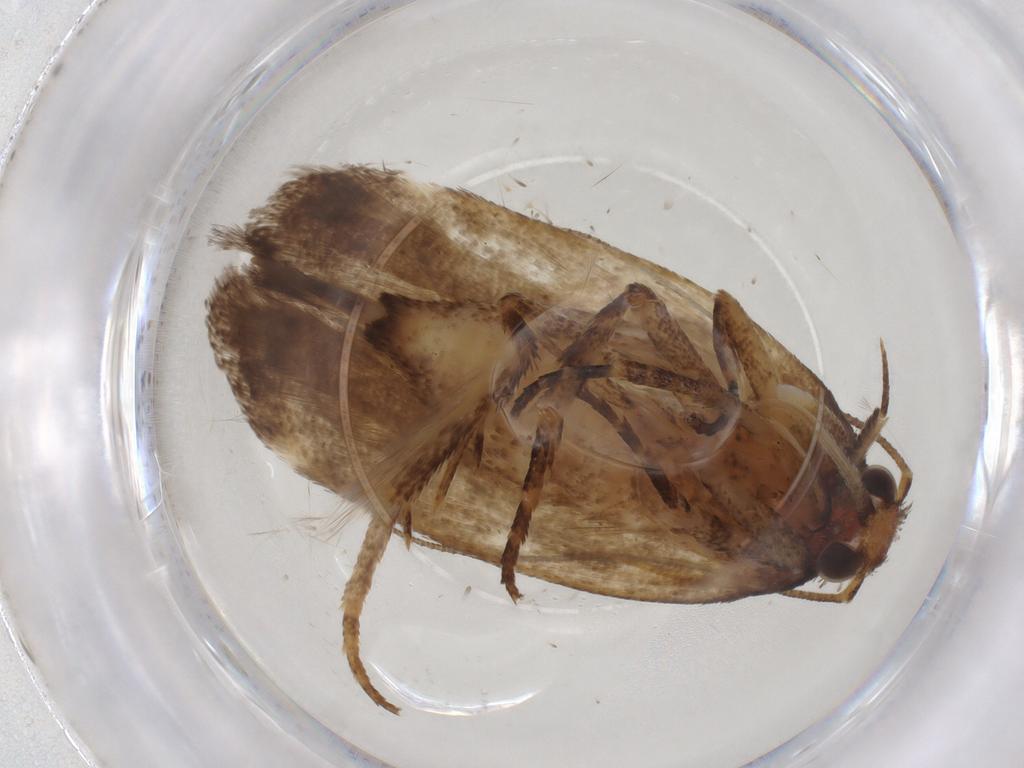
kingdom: Animalia
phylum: Arthropoda
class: Insecta
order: Lepidoptera
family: Gelechiidae
